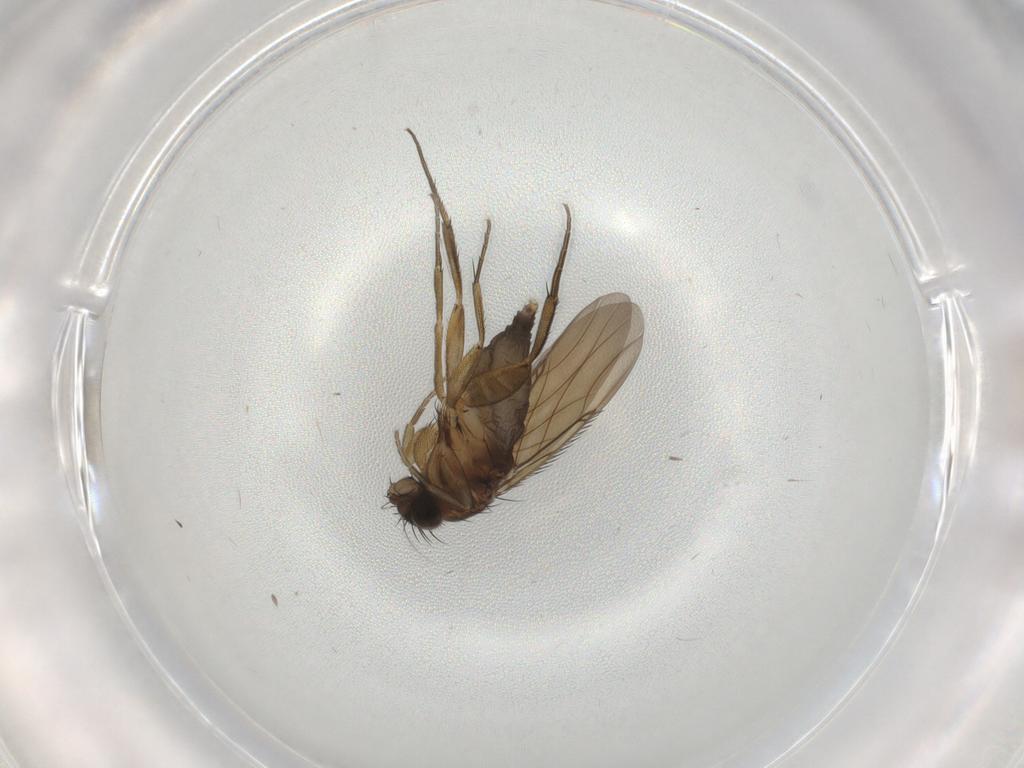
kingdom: Animalia
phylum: Arthropoda
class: Insecta
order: Diptera
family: Phoridae
